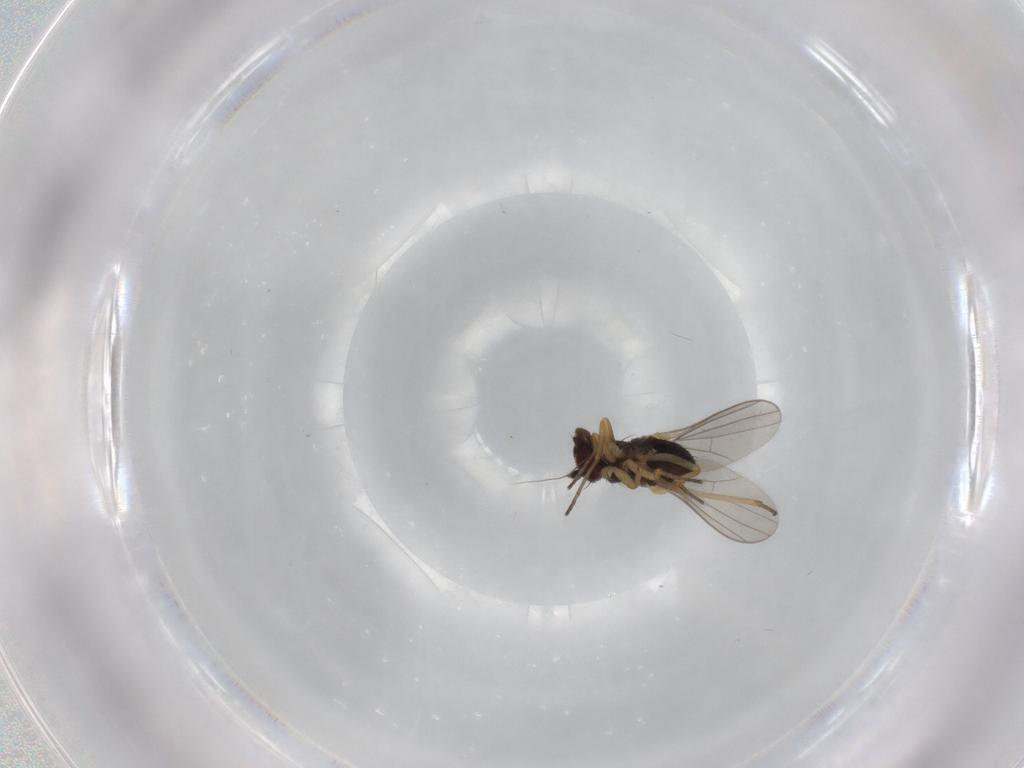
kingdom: Animalia
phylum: Arthropoda
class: Insecta
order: Diptera
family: Dolichopodidae
